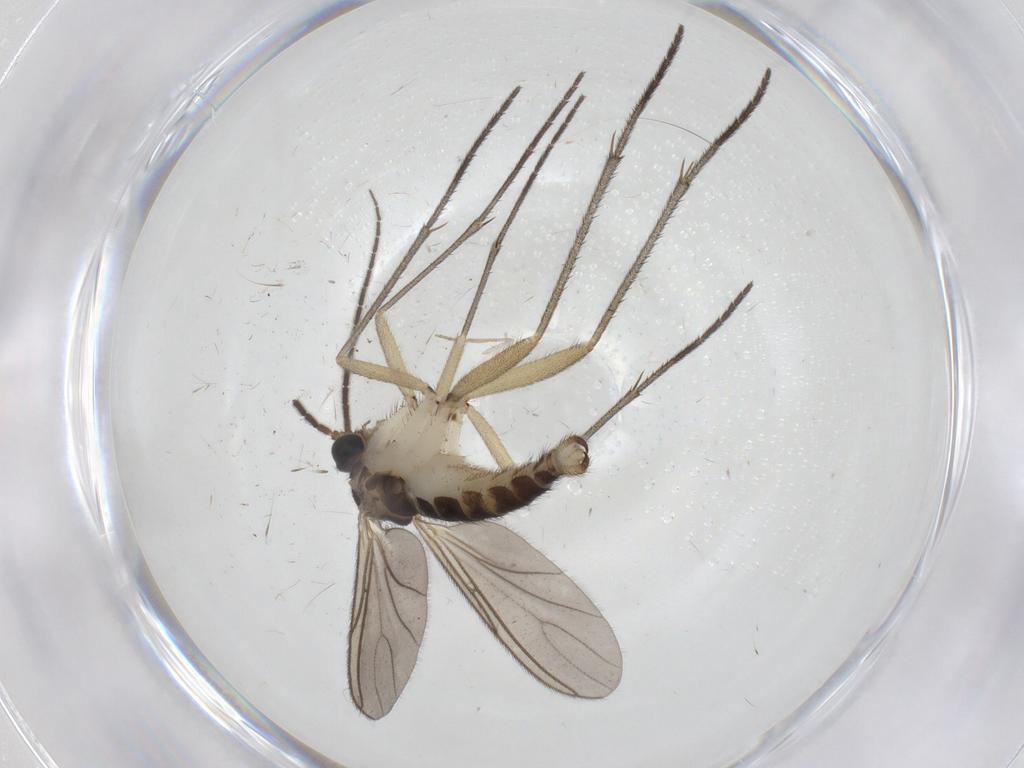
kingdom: Animalia
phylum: Arthropoda
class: Insecta
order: Diptera
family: Sciaridae
